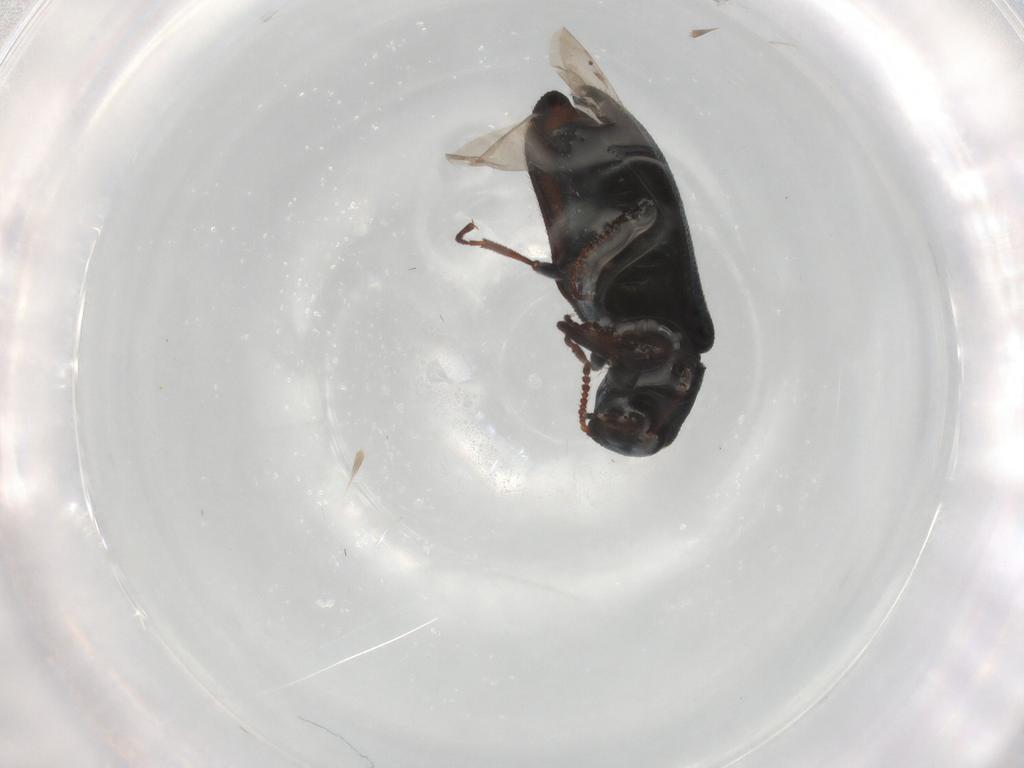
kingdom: Animalia
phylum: Arthropoda
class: Insecta
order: Coleoptera
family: Melyridae
